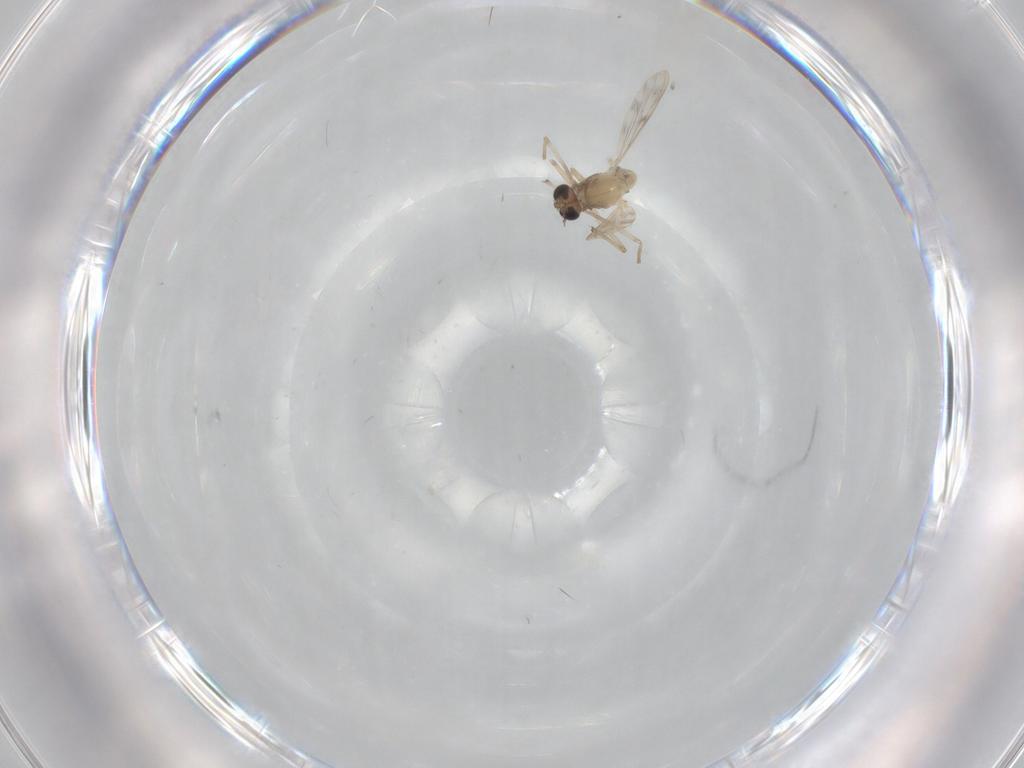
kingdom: Animalia
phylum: Arthropoda
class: Insecta
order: Diptera
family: Chironomidae
